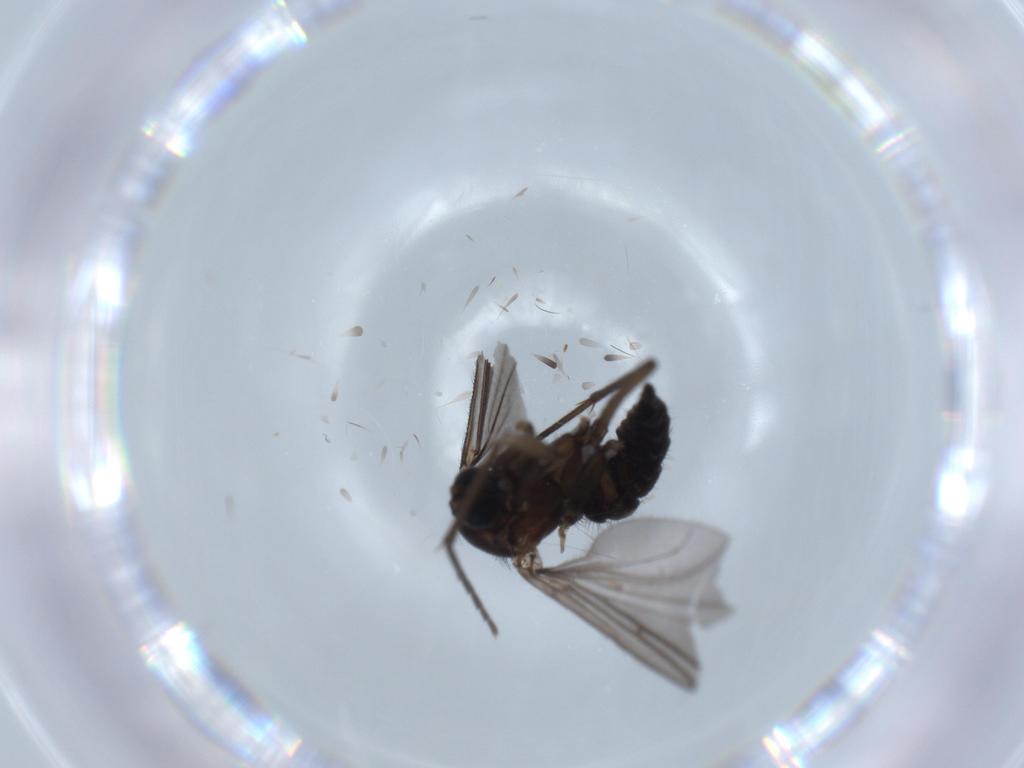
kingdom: Animalia
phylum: Arthropoda
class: Insecta
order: Diptera
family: Sciaridae
